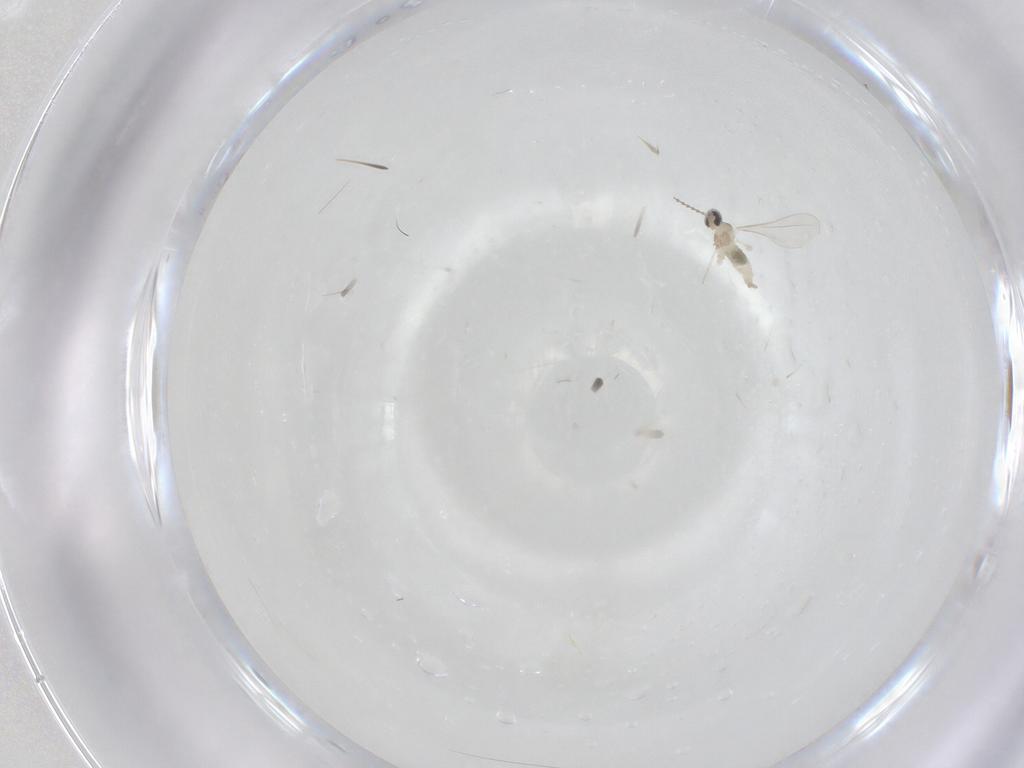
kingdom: Animalia
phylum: Arthropoda
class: Insecta
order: Diptera
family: Cecidomyiidae
